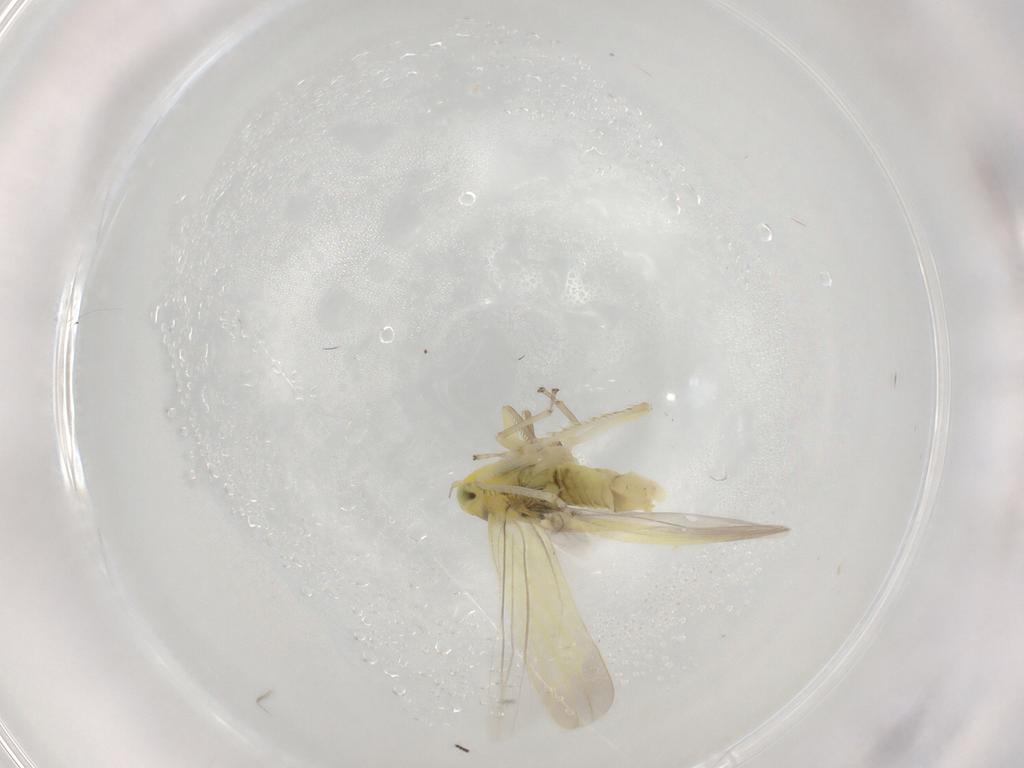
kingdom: Animalia
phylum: Arthropoda
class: Insecta
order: Hemiptera
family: Cicadellidae
